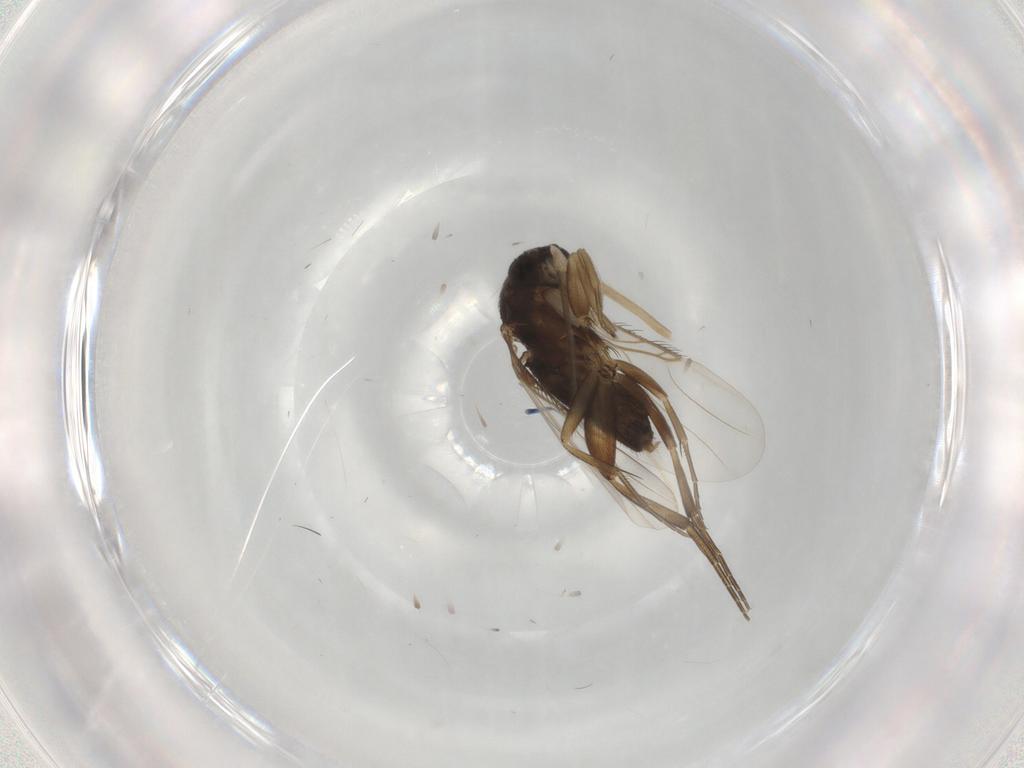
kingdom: Animalia
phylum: Arthropoda
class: Insecta
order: Diptera
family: Phoridae
